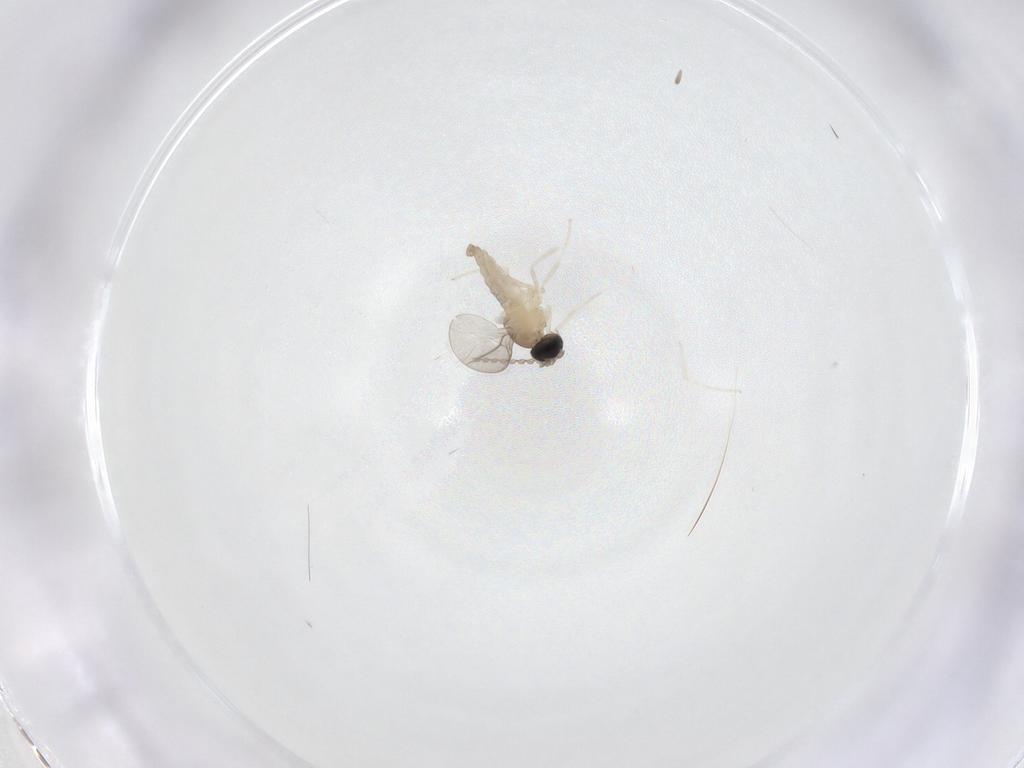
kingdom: Animalia
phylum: Arthropoda
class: Insecta
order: Diptera
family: Cecidomyiidae
